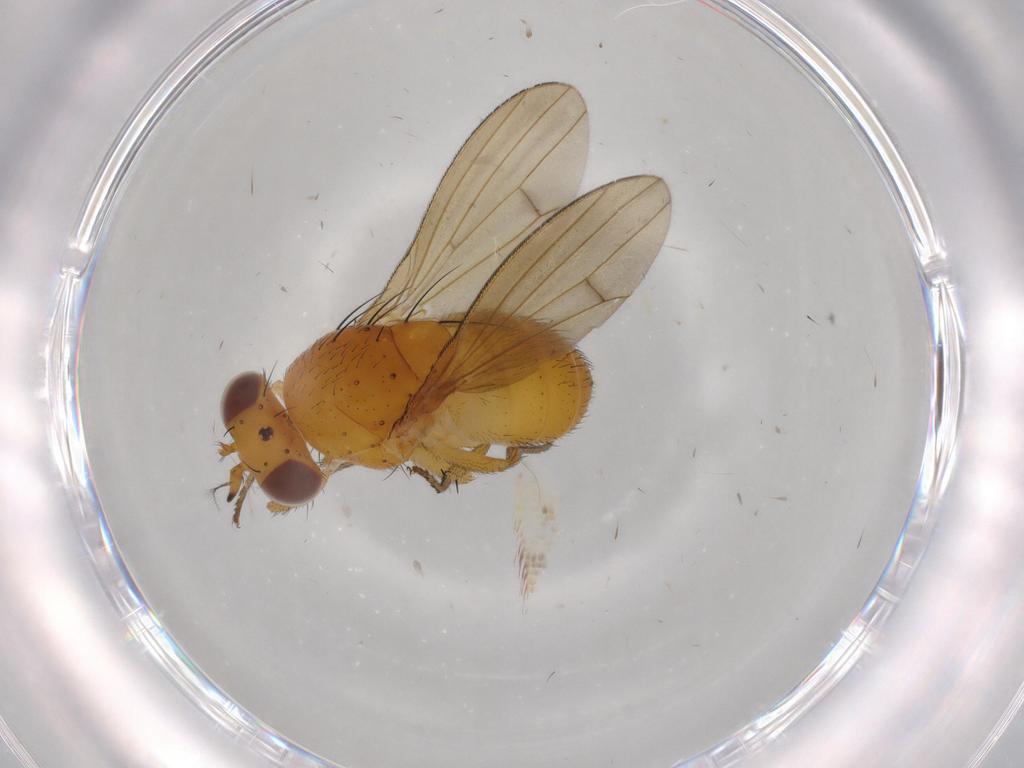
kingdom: Animalia
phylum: Arthropoda
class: Insecta
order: Diptera
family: Lauxaniidae
